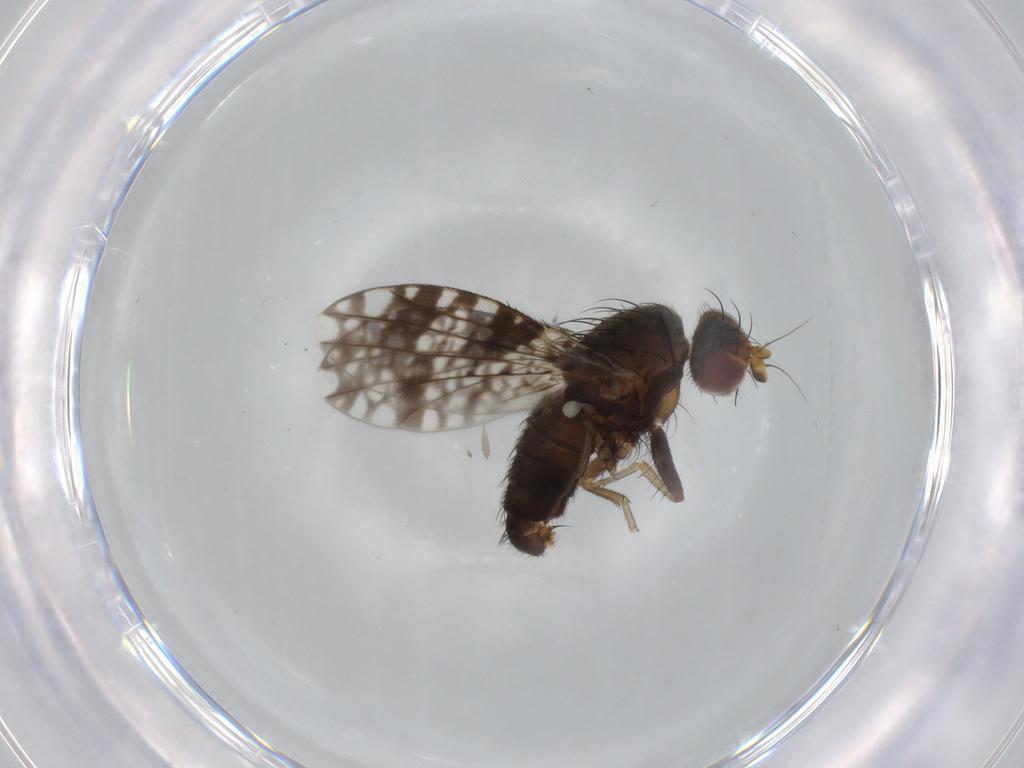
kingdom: Animalia
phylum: Arthropoda
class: Insecta
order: Diptera
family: Tephritidae
